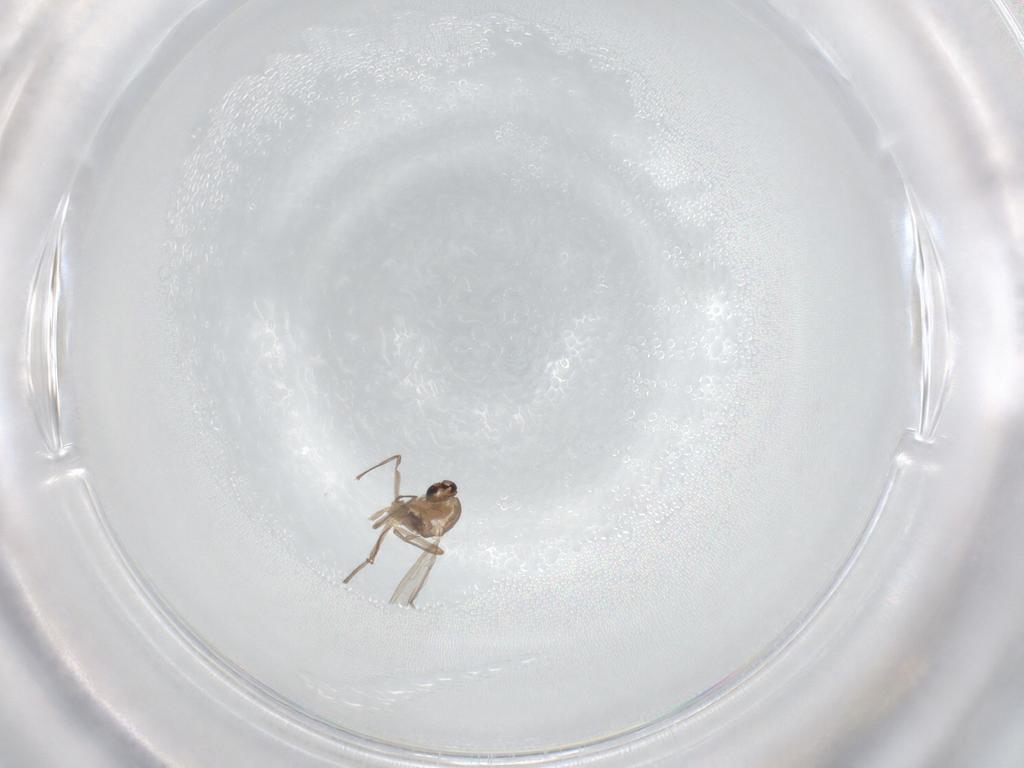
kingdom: Animalia
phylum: Arthropoda
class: Insecta
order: Diptera
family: Chironomidae
